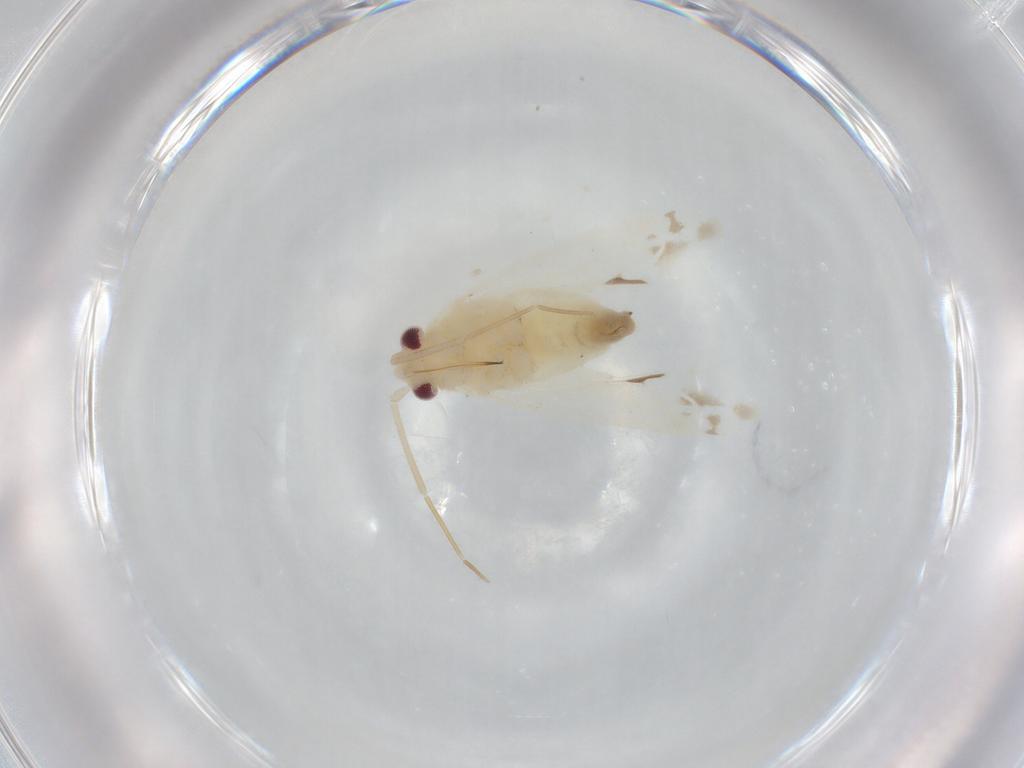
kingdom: Animalia
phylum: Arthropoda
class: Insecta
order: Hemiptera
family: Miridae
